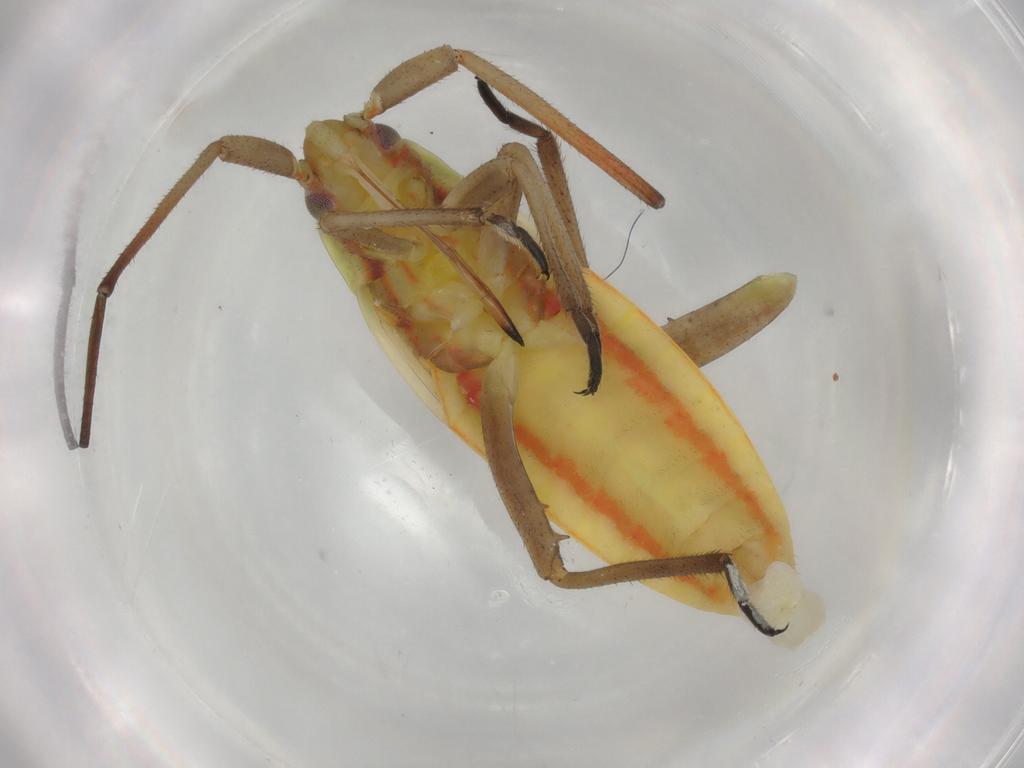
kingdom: Animalia
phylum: Arthropoda
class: Insecta
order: Hemiptera
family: Miridae
